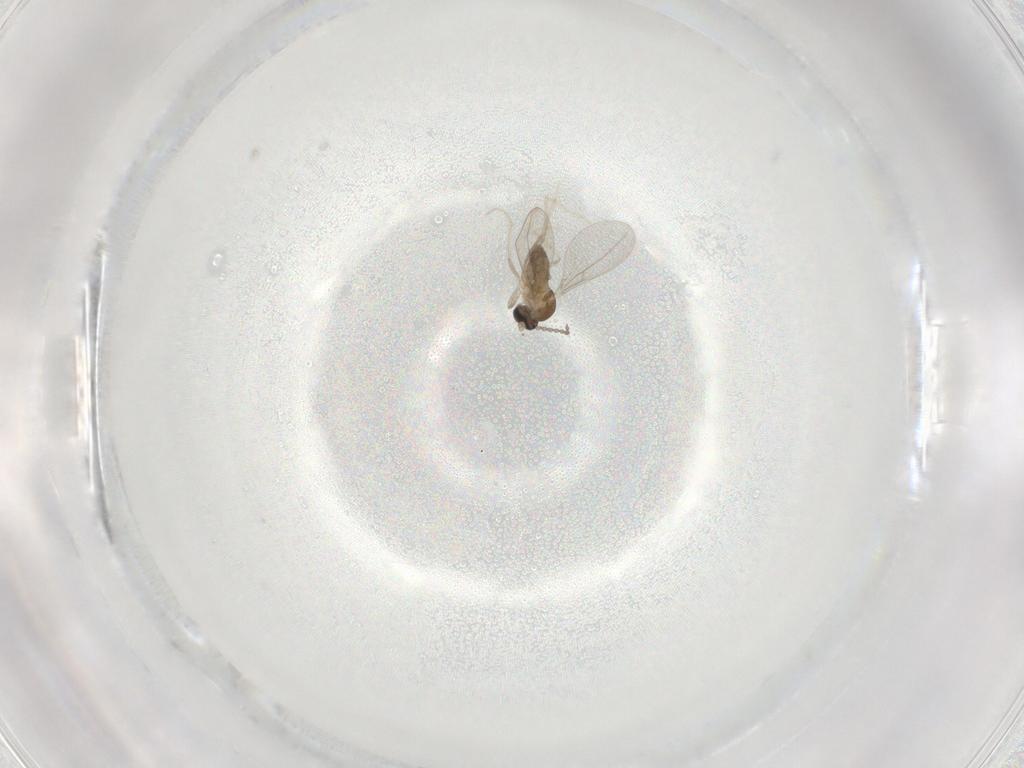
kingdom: Animalia
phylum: Arthropoda
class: Insecta
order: Diptera
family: Cecidomyiidae
